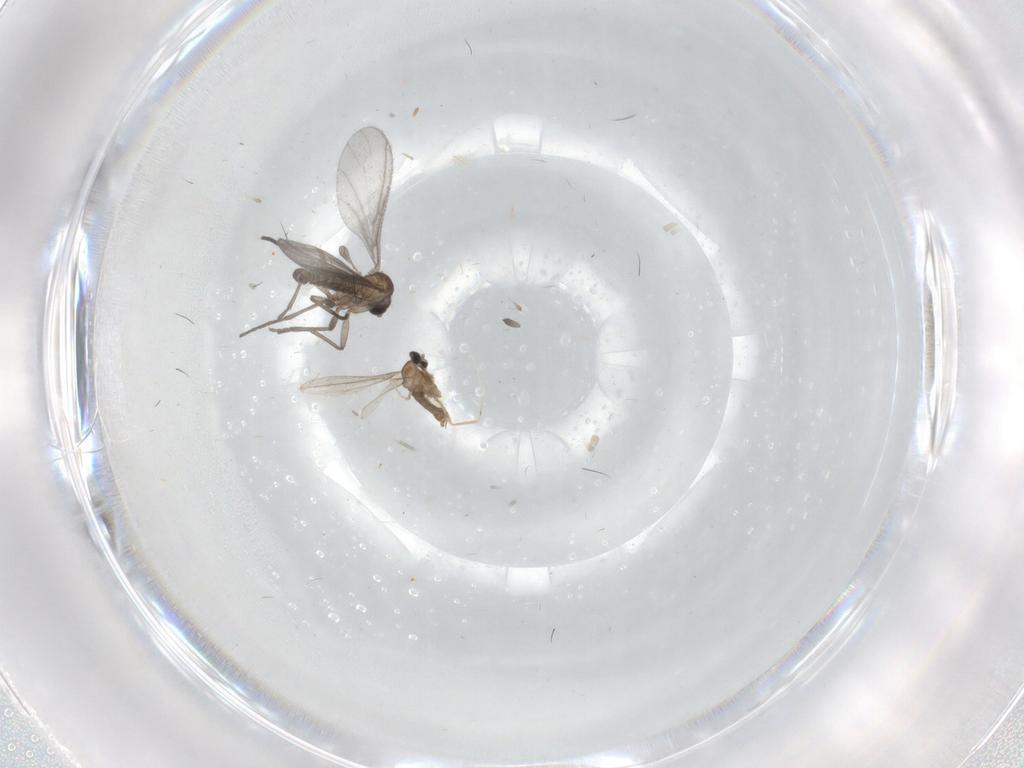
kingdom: Animalia
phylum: Arthropoda
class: Insecta
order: Diptera
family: Cecidomyiidae
